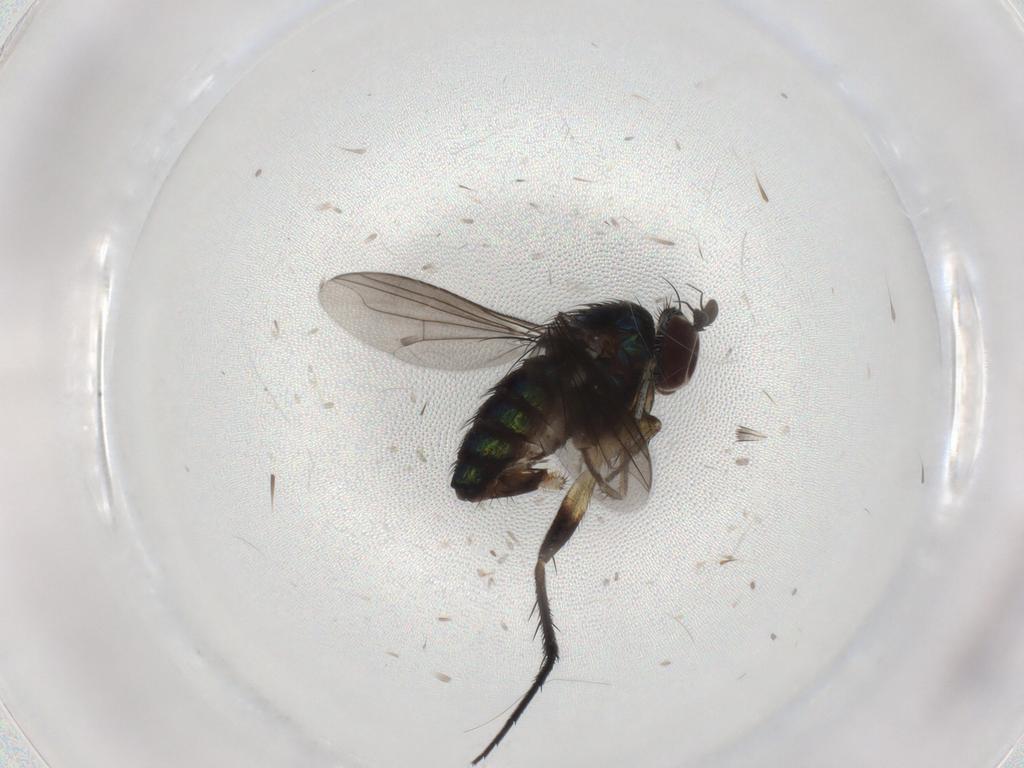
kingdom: Animalia
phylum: Arthropoda
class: Insecta
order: Diptera
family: Dolichopodidae
